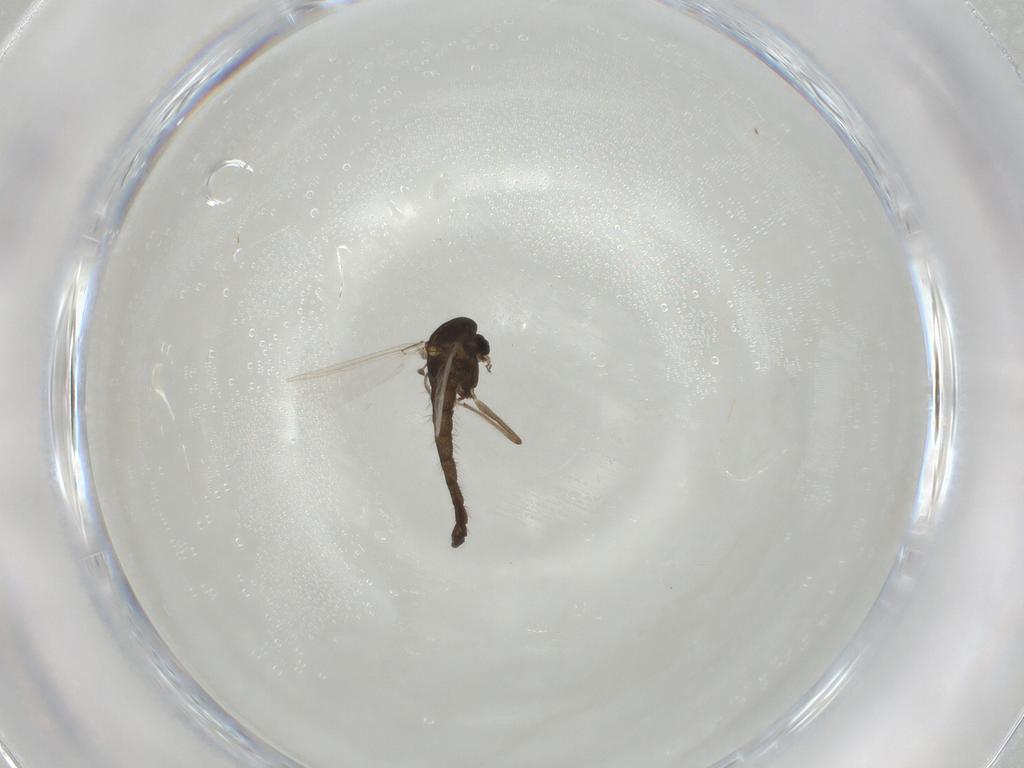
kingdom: Animalia
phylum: Arthropoda
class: Insecta
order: Diptera
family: Chironomidae
